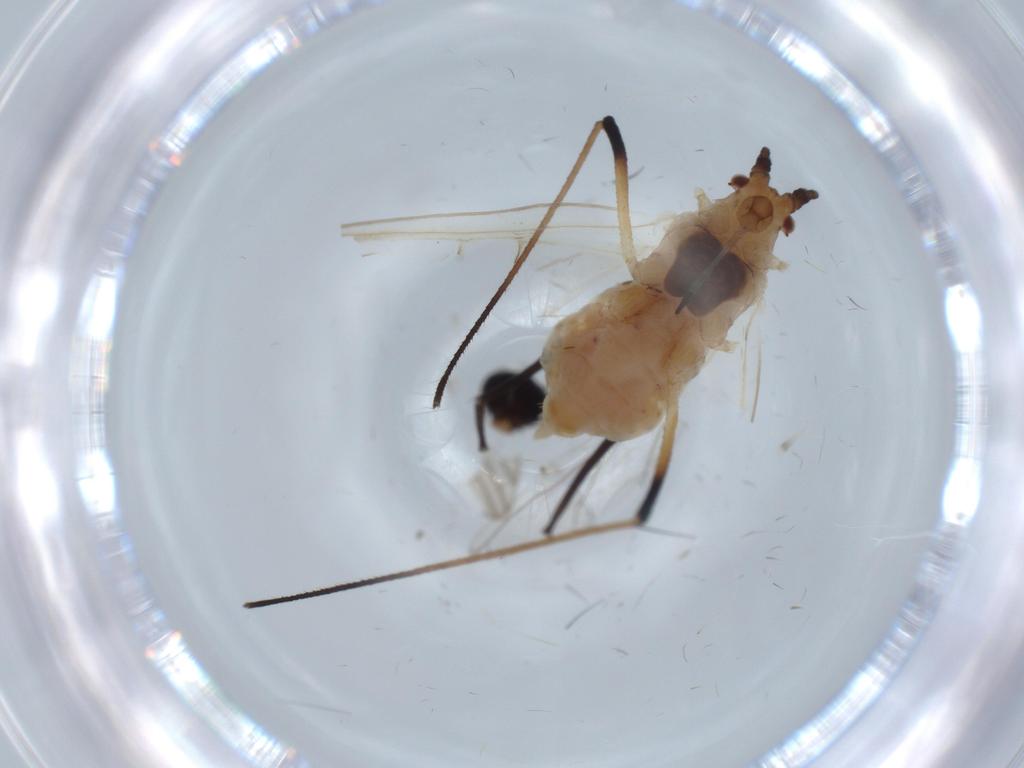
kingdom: Animalia
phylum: Arthropoda
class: Insecta
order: Hemiptera
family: Aphididae
